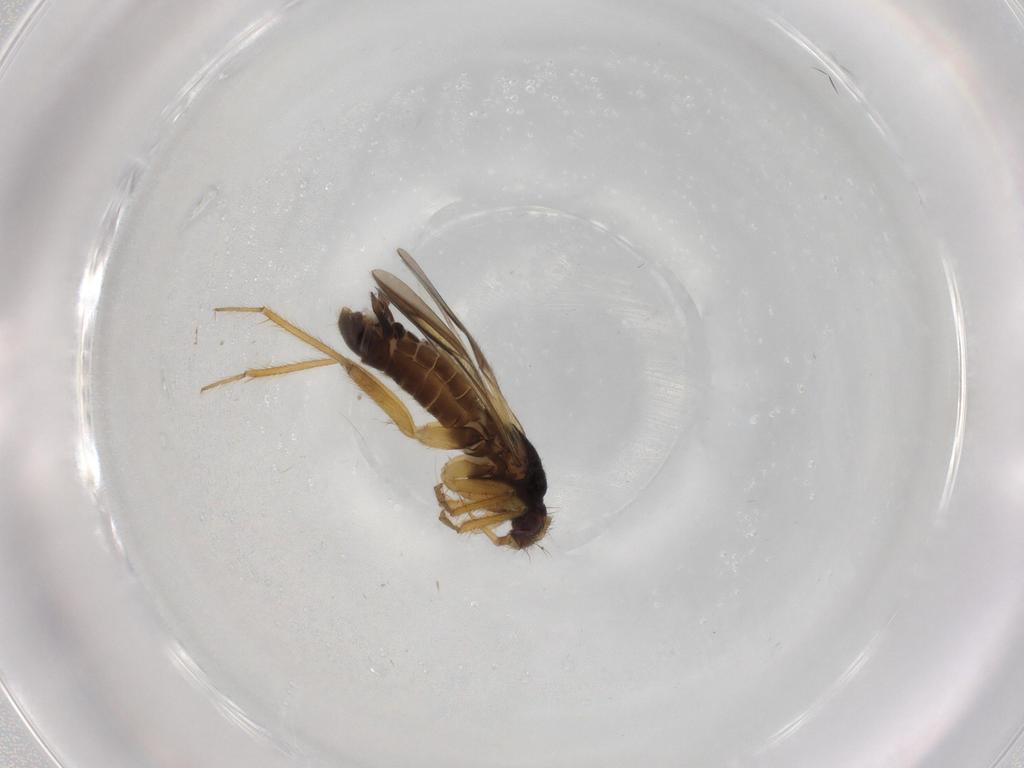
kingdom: Animalia
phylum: Arthropoda
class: Insecta
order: Hemiptera
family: Ceratocombidae
